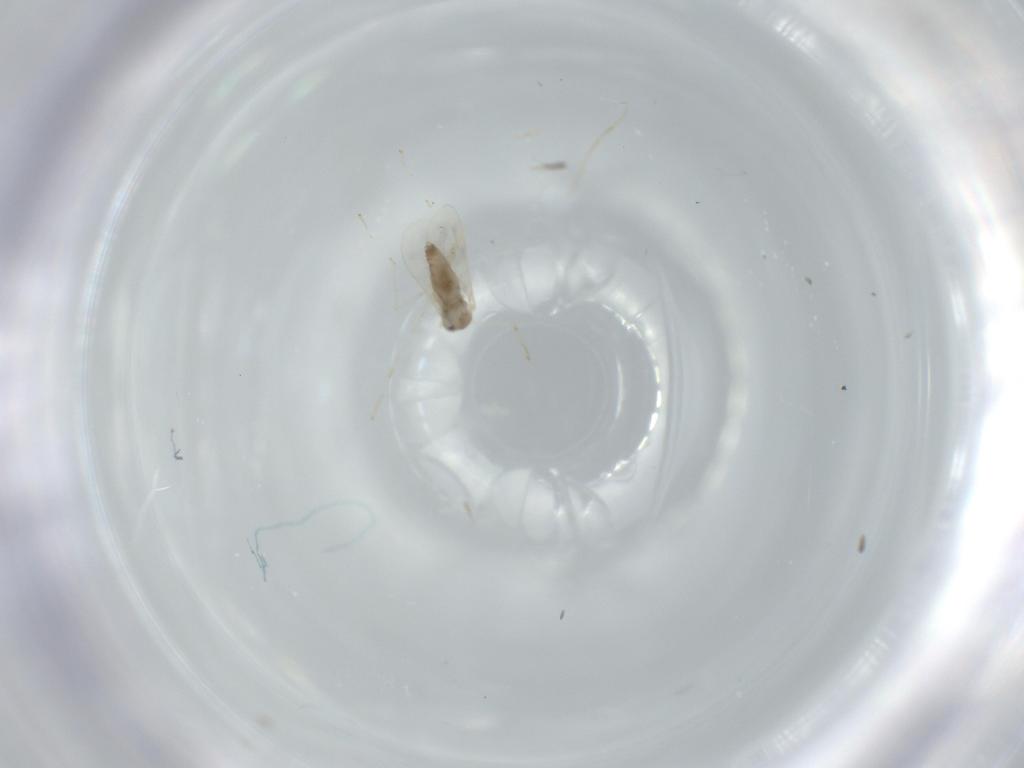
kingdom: Animalia
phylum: Arthropoda
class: Insecta
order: Diptera
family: Cecidomyiidae
